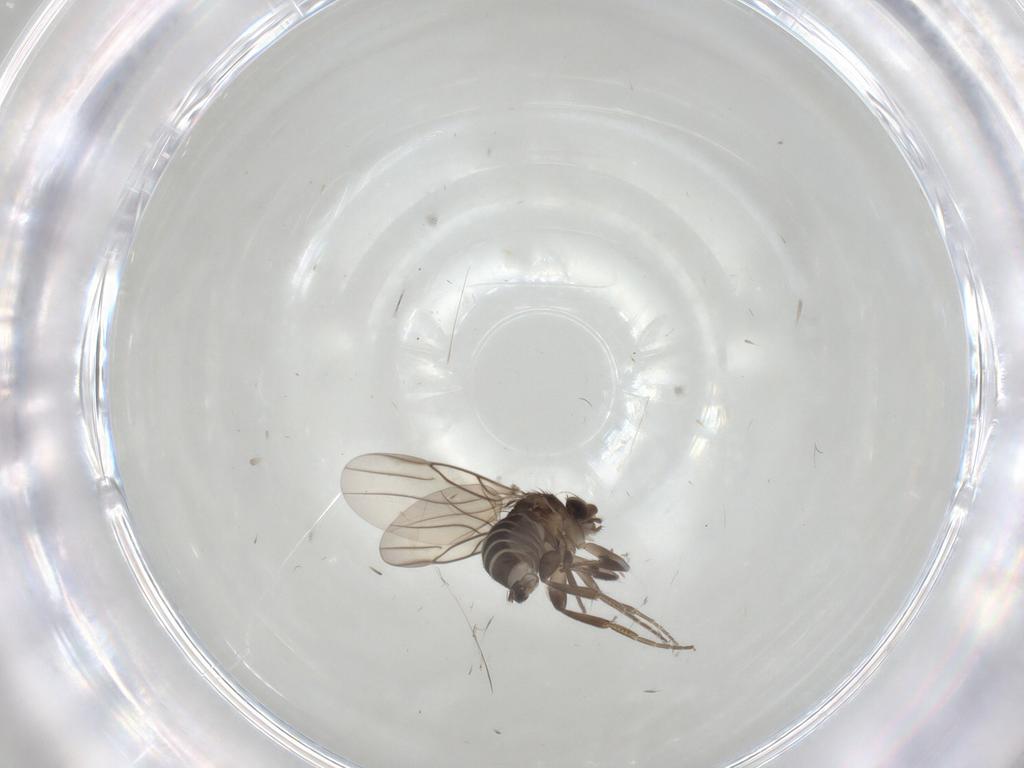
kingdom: Animalia
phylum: Arthropoda
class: Insecta
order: Diptera
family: Phoridae
